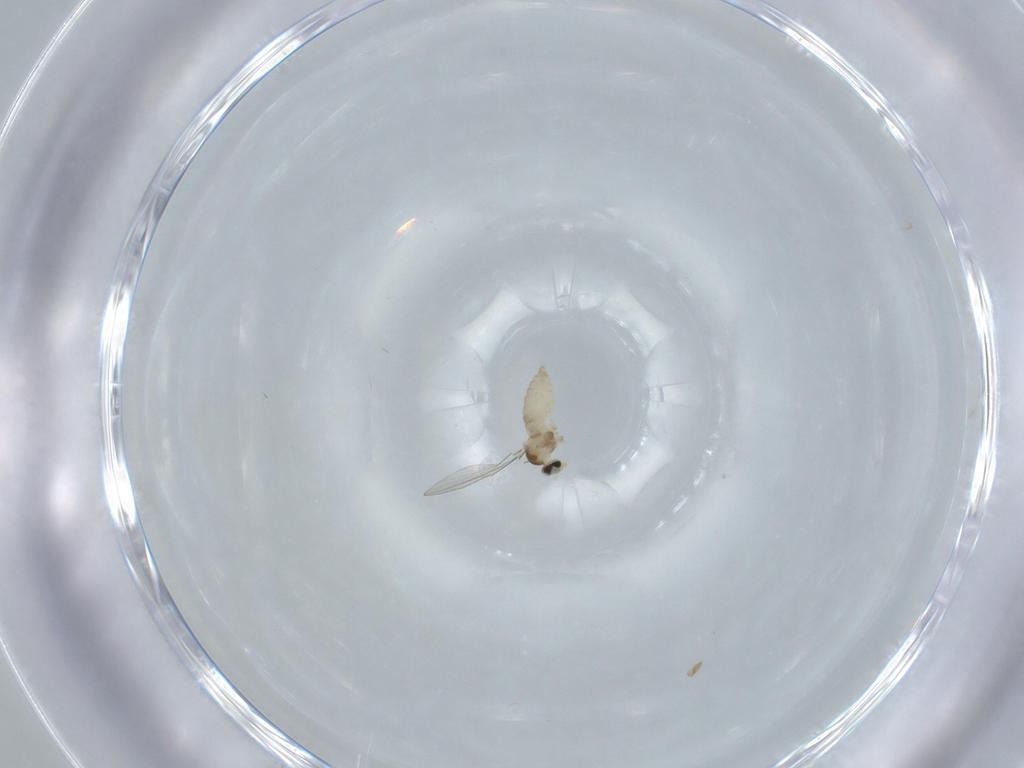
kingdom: Animalia
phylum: Arthropoda
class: Insecta
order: Diptera
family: Cecidomyiidae
